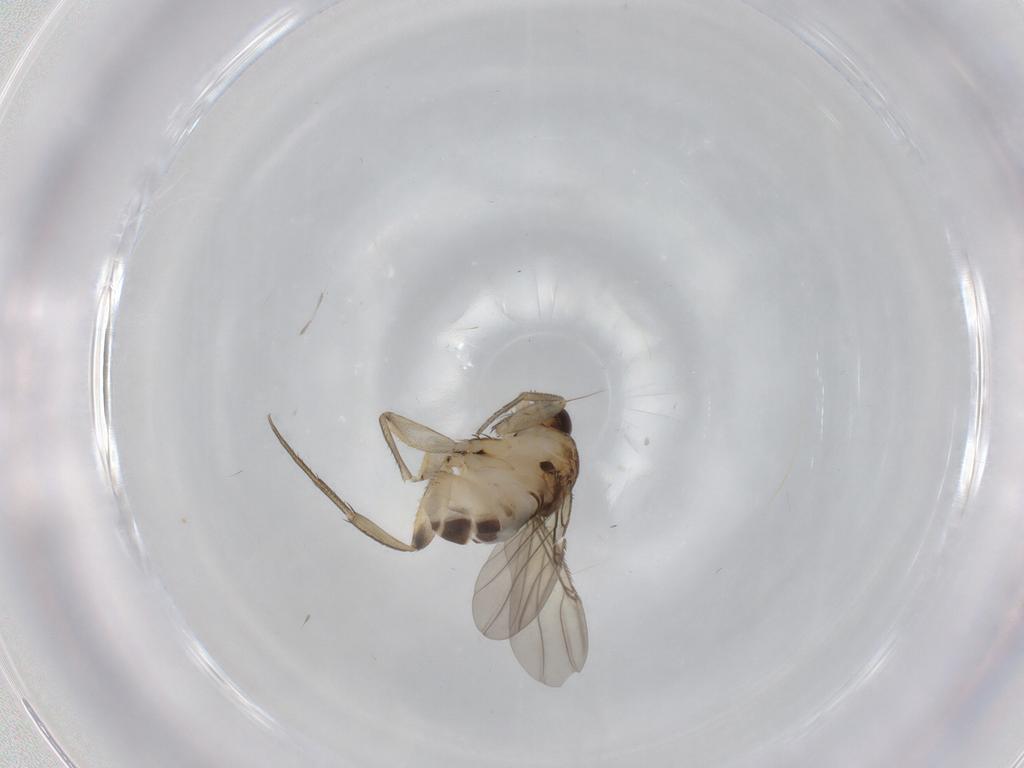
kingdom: Animalia
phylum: Arthropoda
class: Insecta
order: Diptera
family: Phoridae
